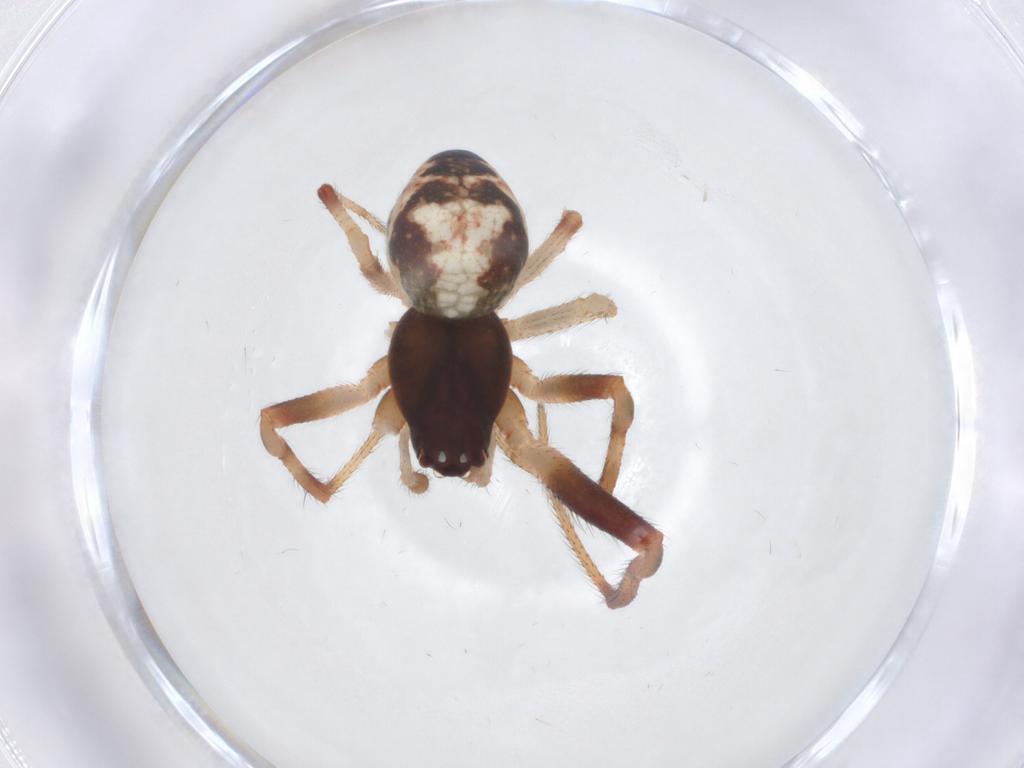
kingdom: Animalia
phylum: Arthropoda
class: Arachnida
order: Araneae
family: Theridiidae
